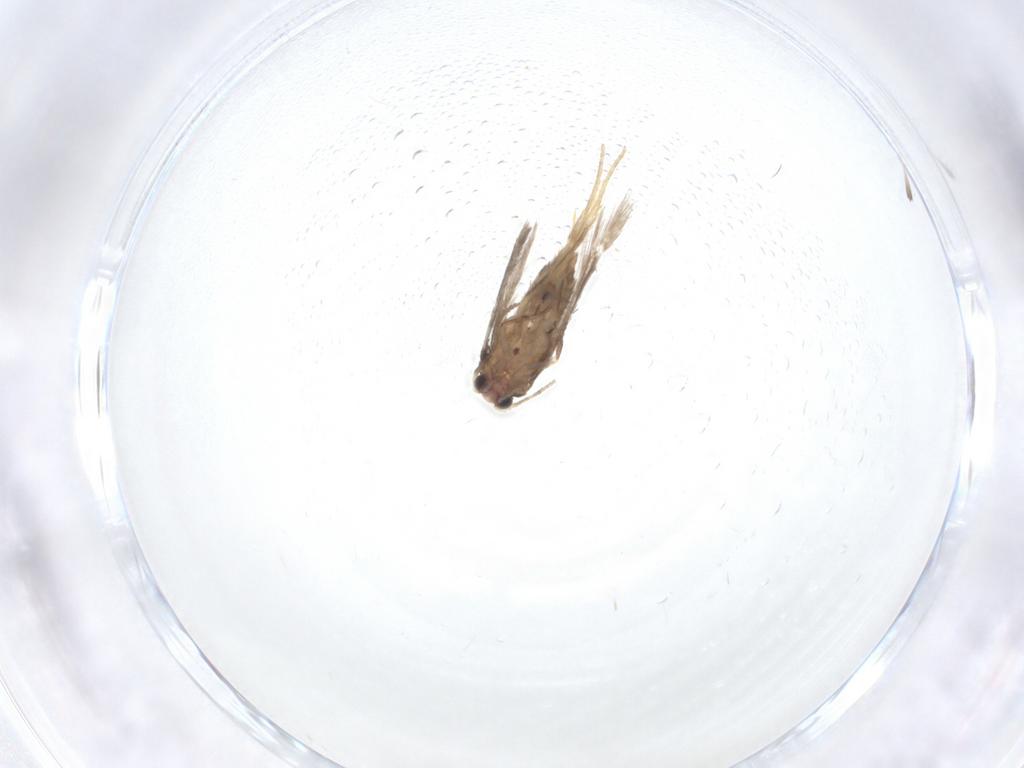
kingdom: Animalia
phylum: Arthropoda
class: Insecta
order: Lepidoptera
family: Nepticulidae
